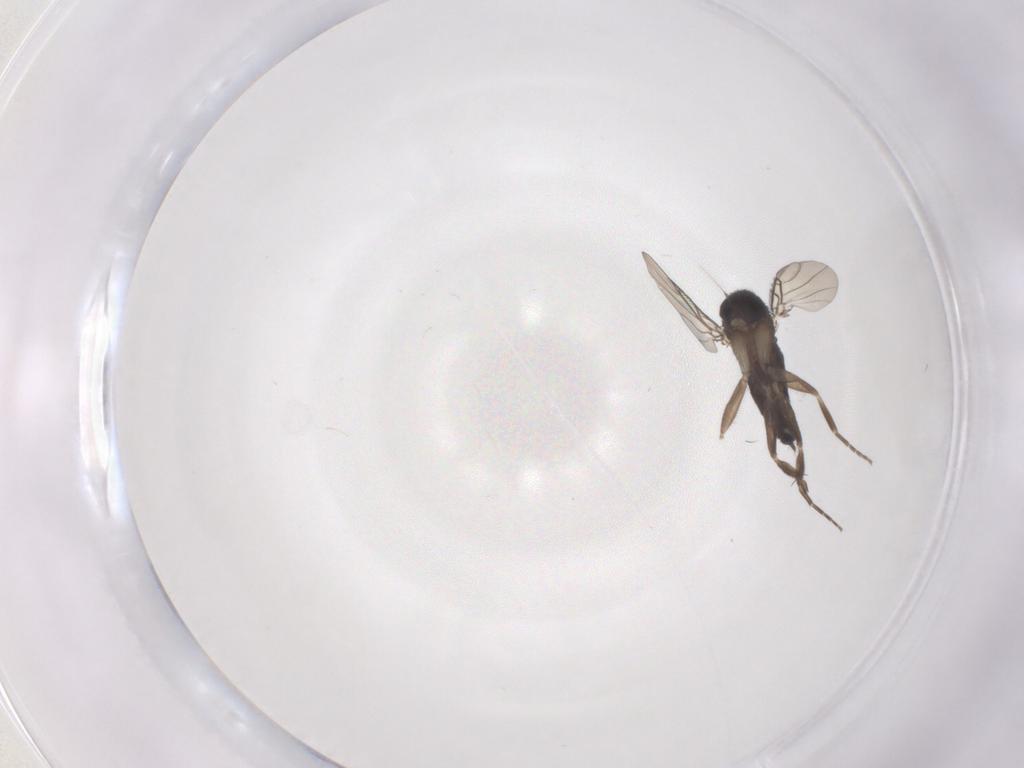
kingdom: Animalia
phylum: Arthropoda
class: Insecta
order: Diptera
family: Phoridae
